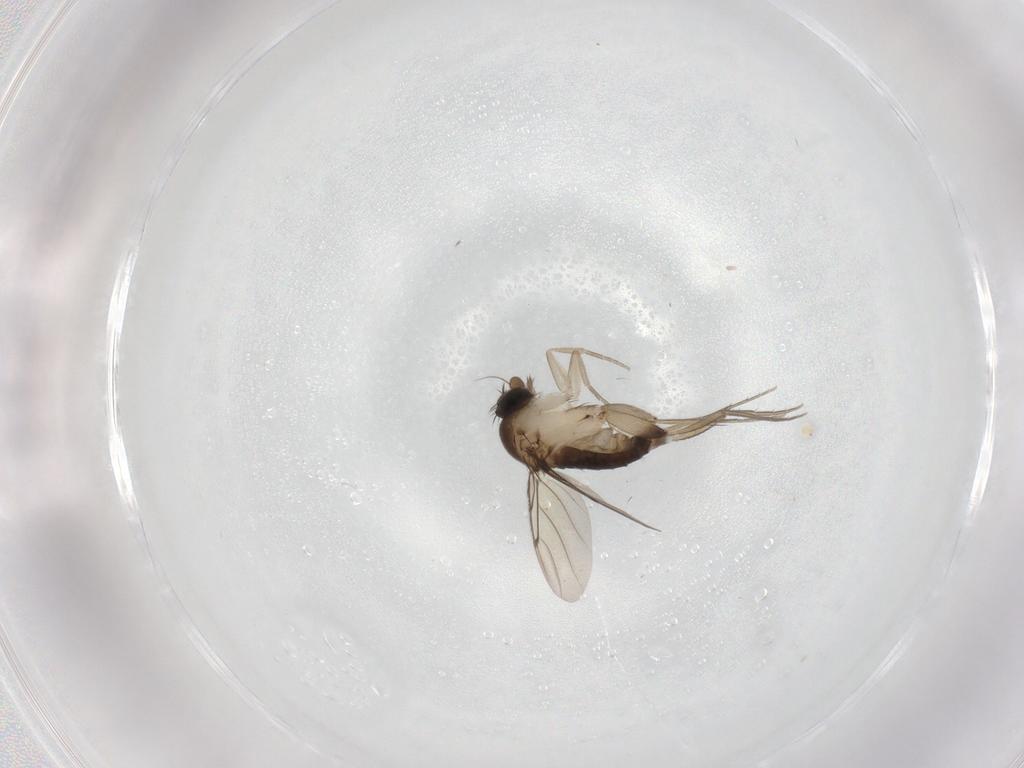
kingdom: Animalia
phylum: Arthropoda
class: Insecta
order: Diptera
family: Phoridae
